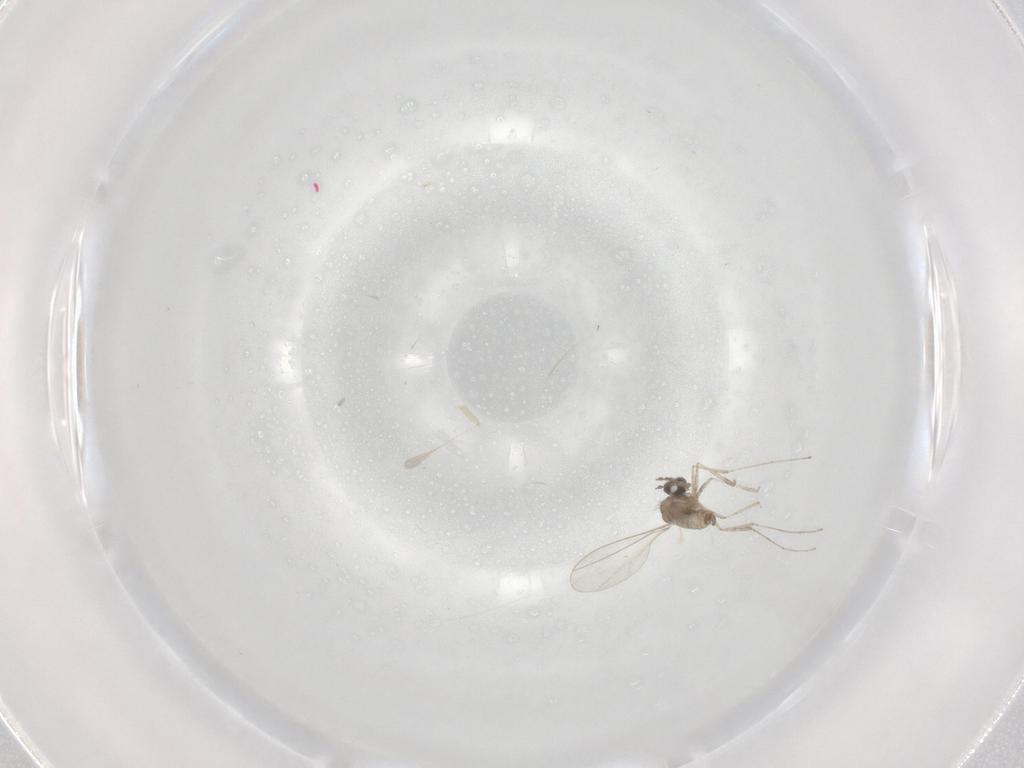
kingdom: Animalia
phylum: Arthropoda
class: Insecta
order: Diptera
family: Cecidomyiidae
